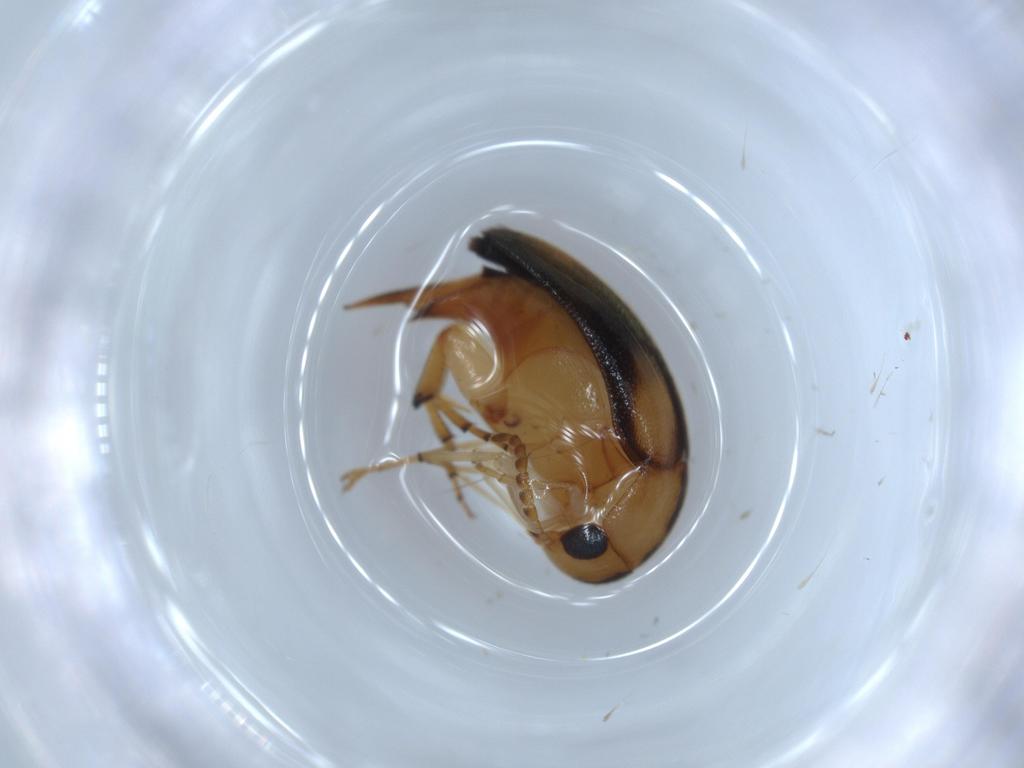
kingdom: Animalia
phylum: Arthropoda
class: Insecta
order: Coleoptera
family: Mordellidae
